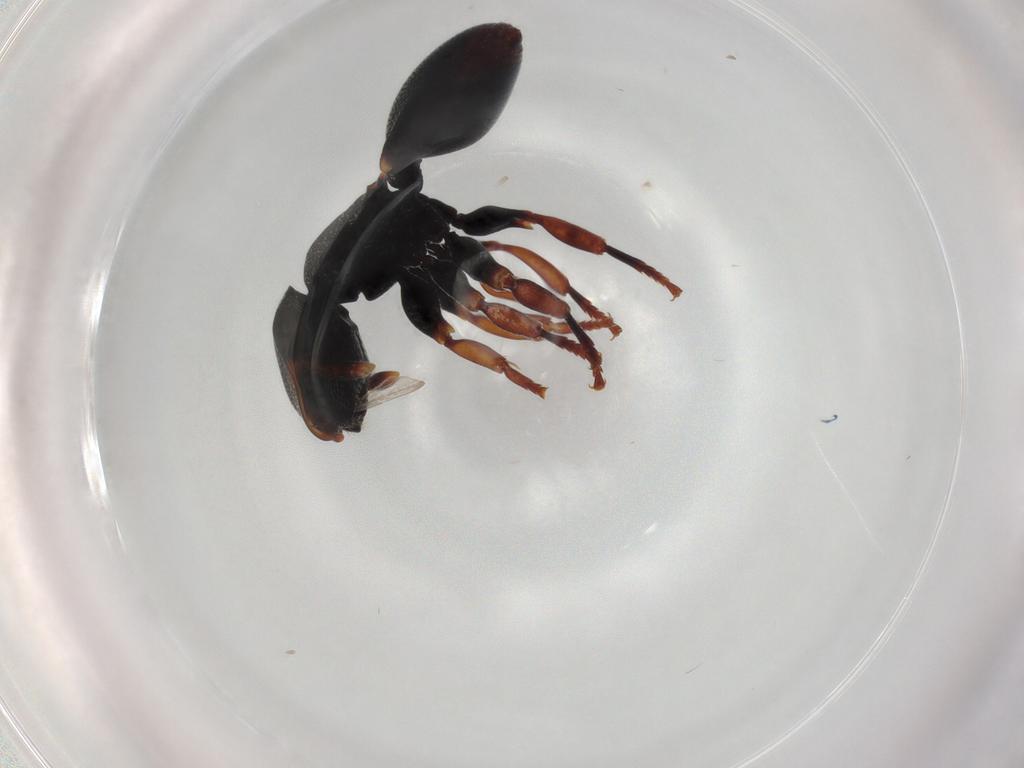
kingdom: Animalia
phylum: Arthropoda
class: Insecta
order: Hymenoptera
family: Formicidae
